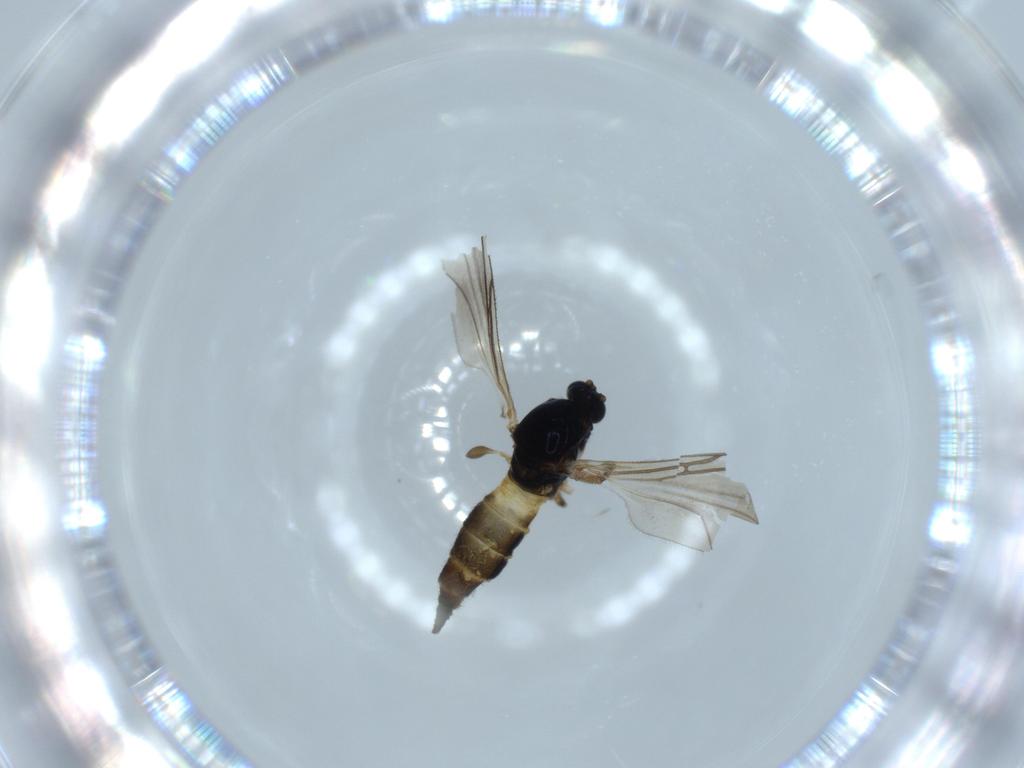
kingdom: Animalia
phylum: Arthropoda
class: Insecta
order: Diptera
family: Sciaridae
